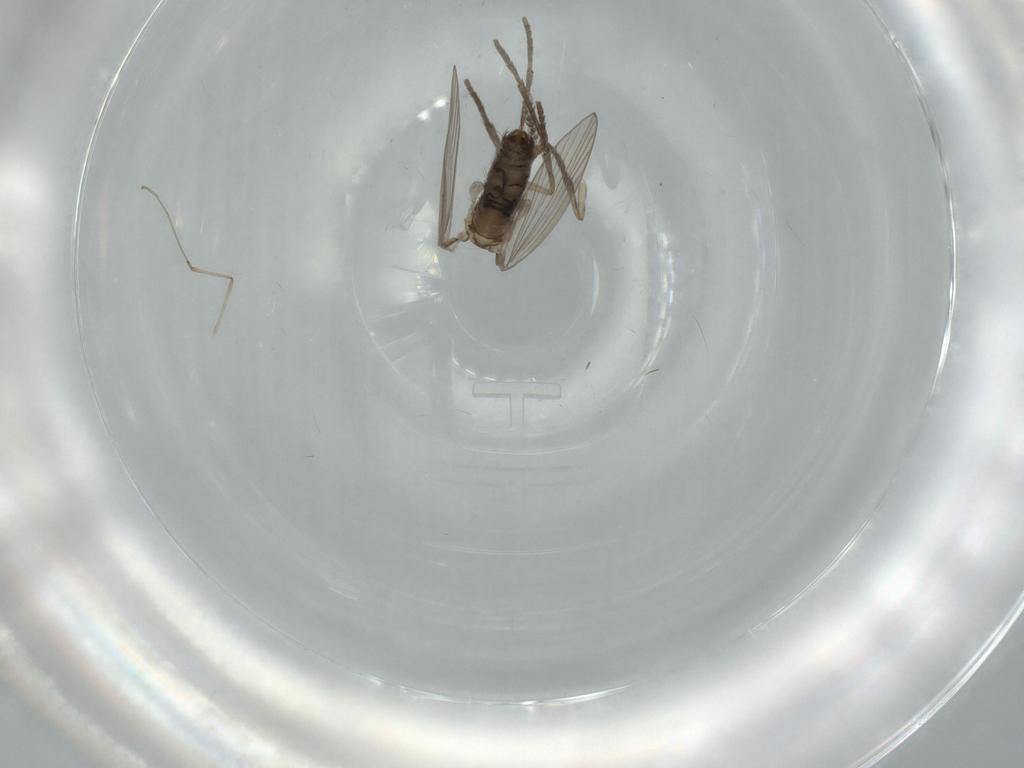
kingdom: Animalia
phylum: Arthropoda
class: Insecta
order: Diptera
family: Psychodidae
